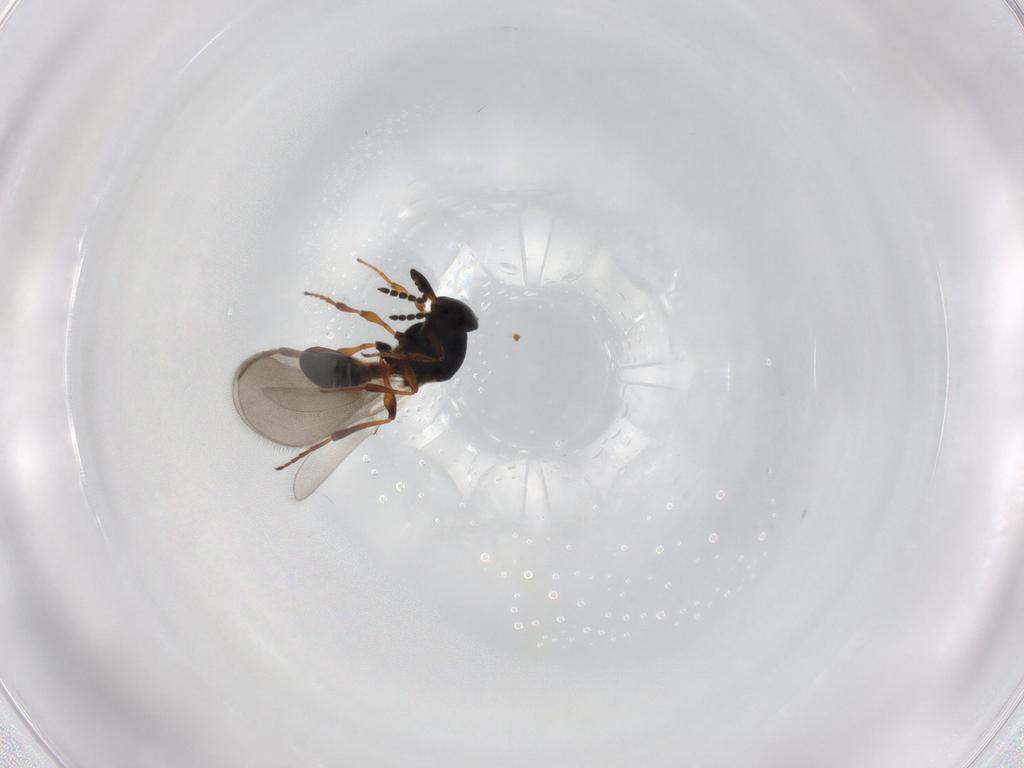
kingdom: Animalia
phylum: Arthropoda
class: Insecta
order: Hymenoptera
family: Platygastridae
